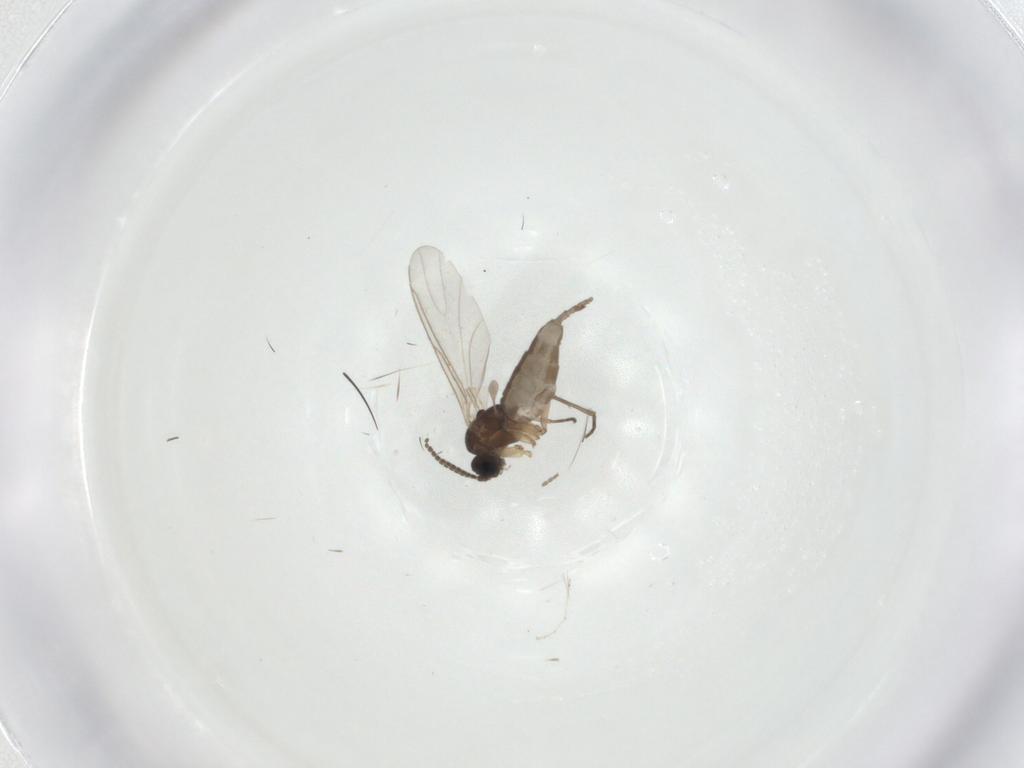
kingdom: Animalia
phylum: Arthropoda
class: Insecta
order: Diptera
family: Sciaridae
